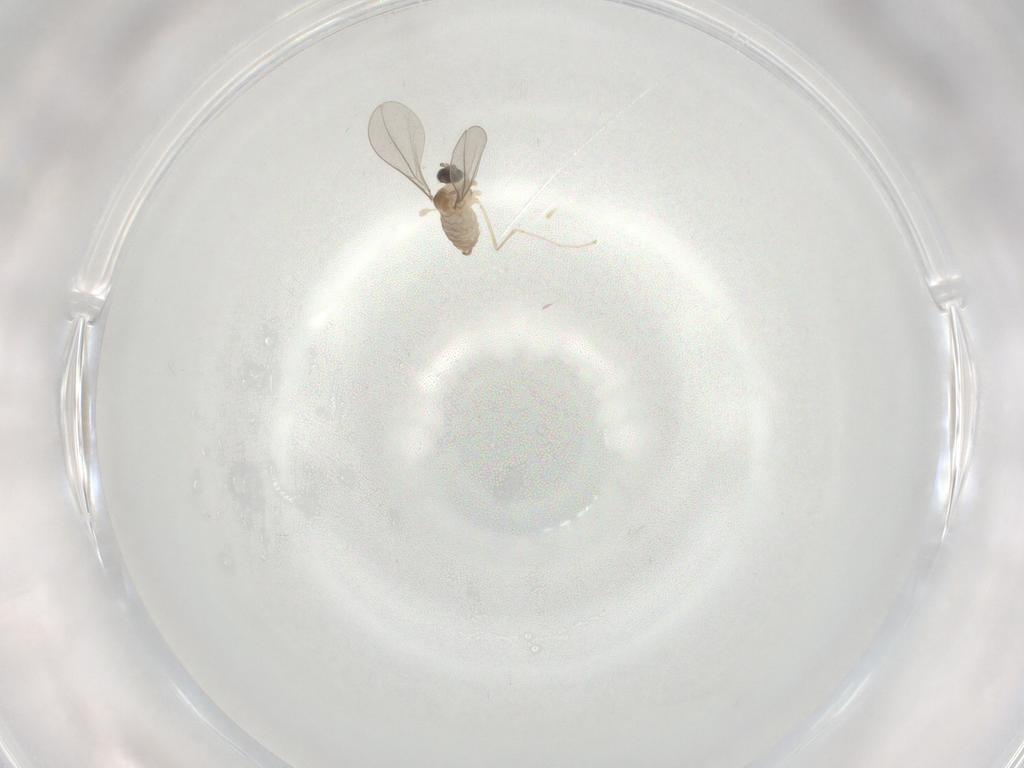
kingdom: Animalia
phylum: Arthropoda
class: Insecta
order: Diptera
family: Cecidomyiidae
